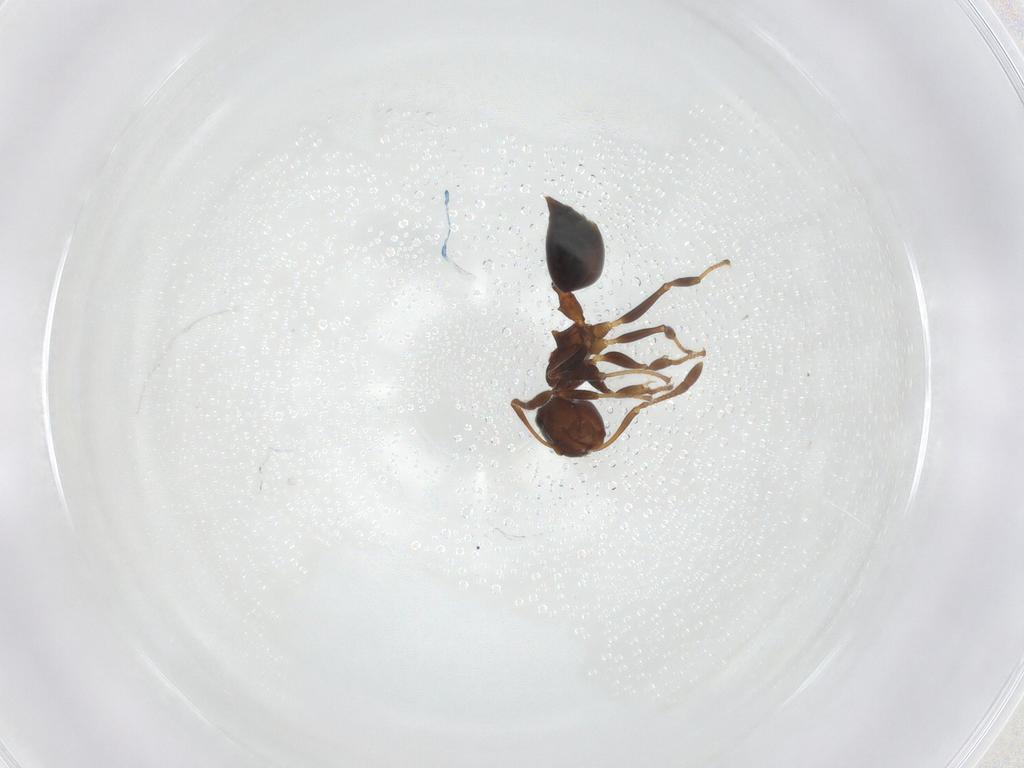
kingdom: Animalia
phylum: Arthropoda
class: Insecta
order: Hymenoptera
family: Formicidae
